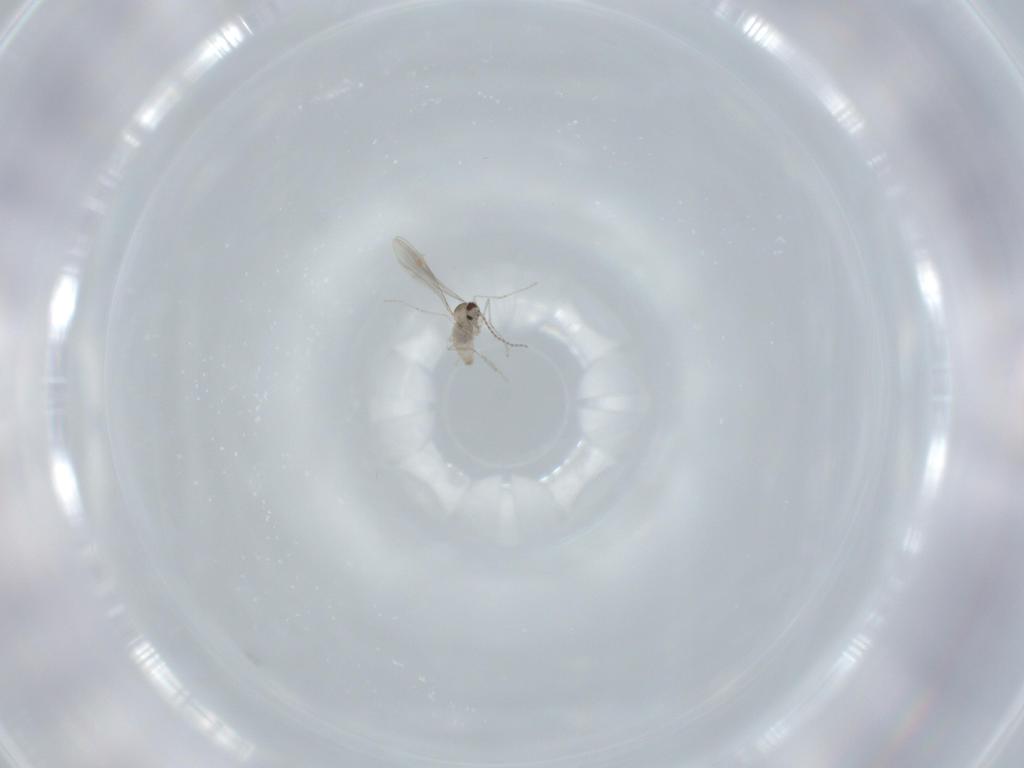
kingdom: Animalia
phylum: Arthropoda
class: Insecta
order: Diptera
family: Cecidomyiidae
